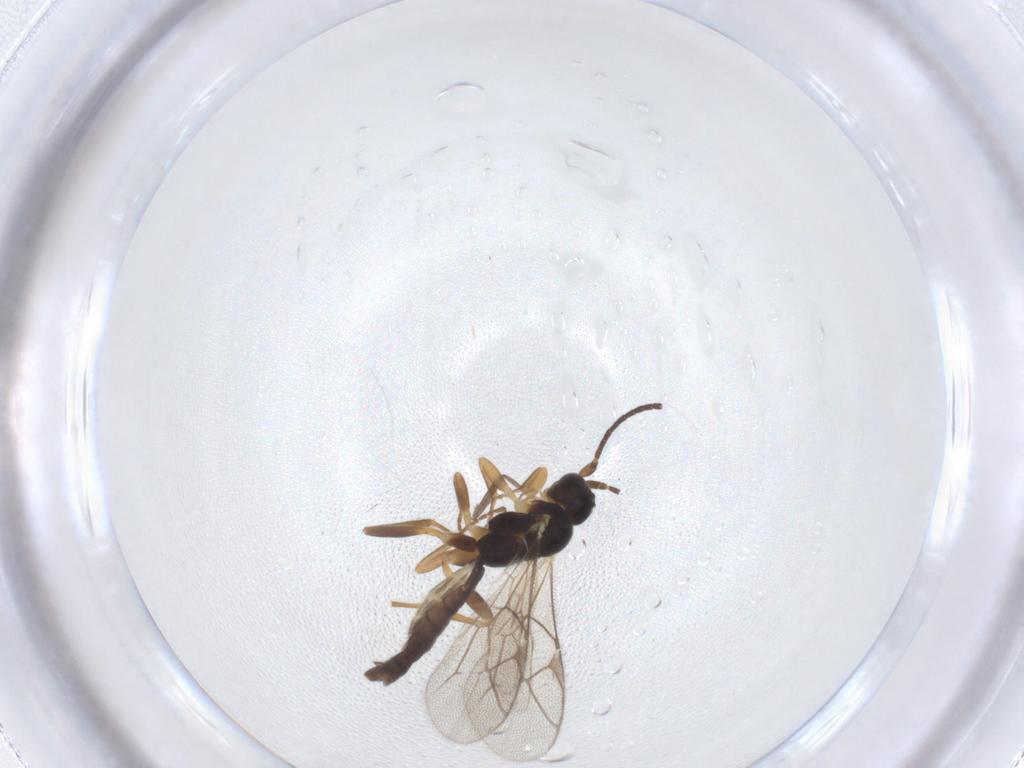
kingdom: Animalia
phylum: Arthropoda
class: Insecta
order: Hymenoptera
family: Ichneumonidae
